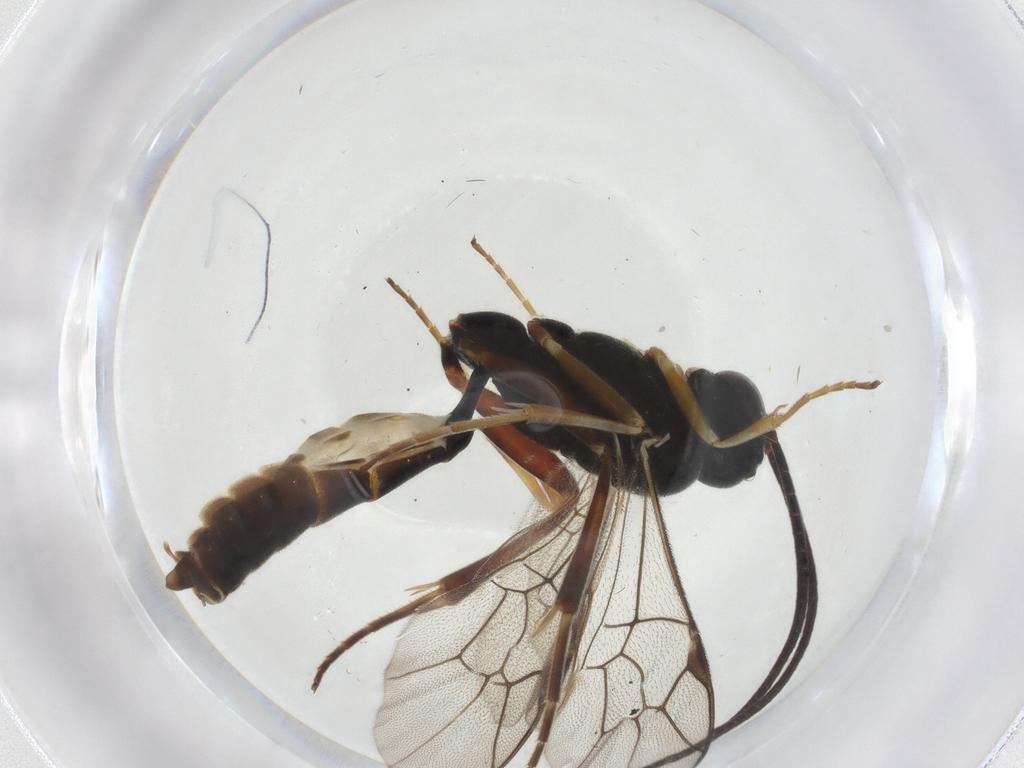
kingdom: Animalia
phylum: Arthropoda
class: Insecta
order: Hymenoptera
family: Ichneumonidae
